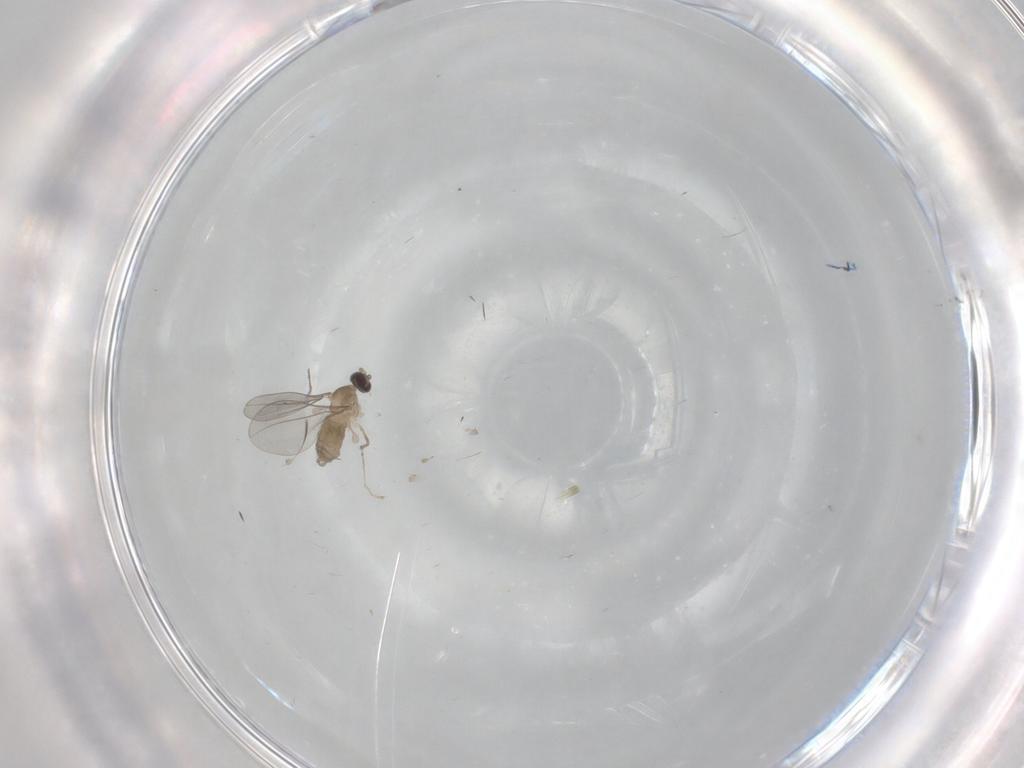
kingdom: Animalia
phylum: Arthropoda
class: Insecta
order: Diptera
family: Cecidomyiidae
